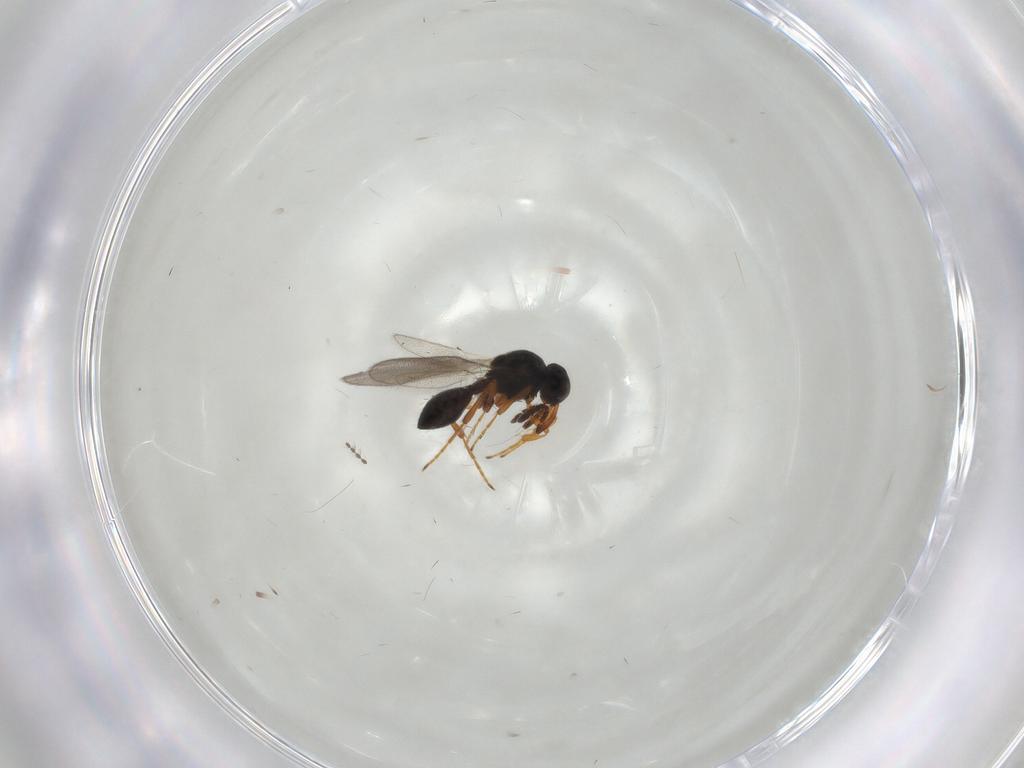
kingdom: Animalia
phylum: Arthropoda
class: Insecta
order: Hymenoptera
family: Platygastridae
